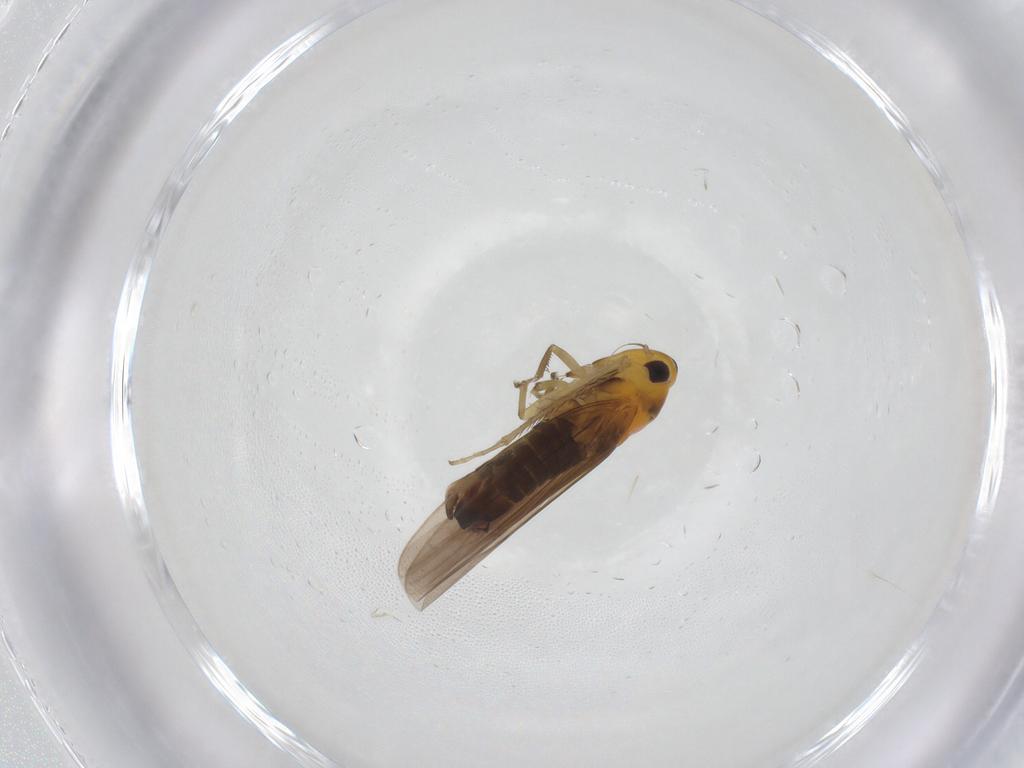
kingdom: Animalia
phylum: Arthropoda
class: Insecta
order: Hemiptera
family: Cicadellidae
